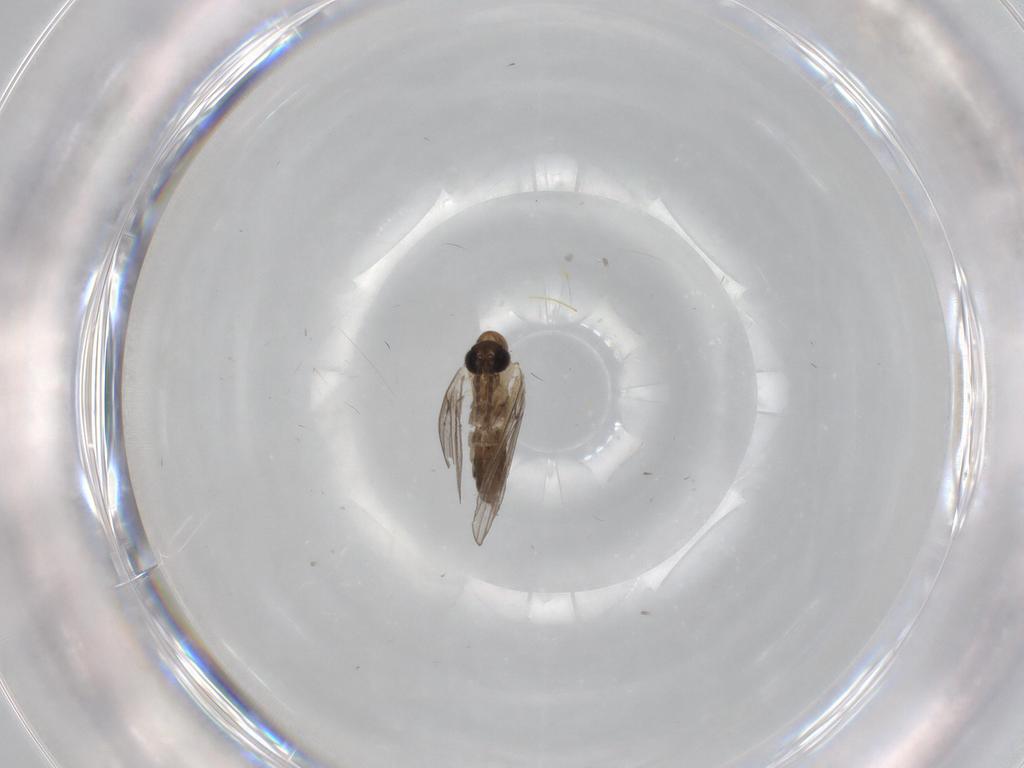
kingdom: Animalia
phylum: Arthropoda
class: Insecta
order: Diptera
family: Psychodidae
